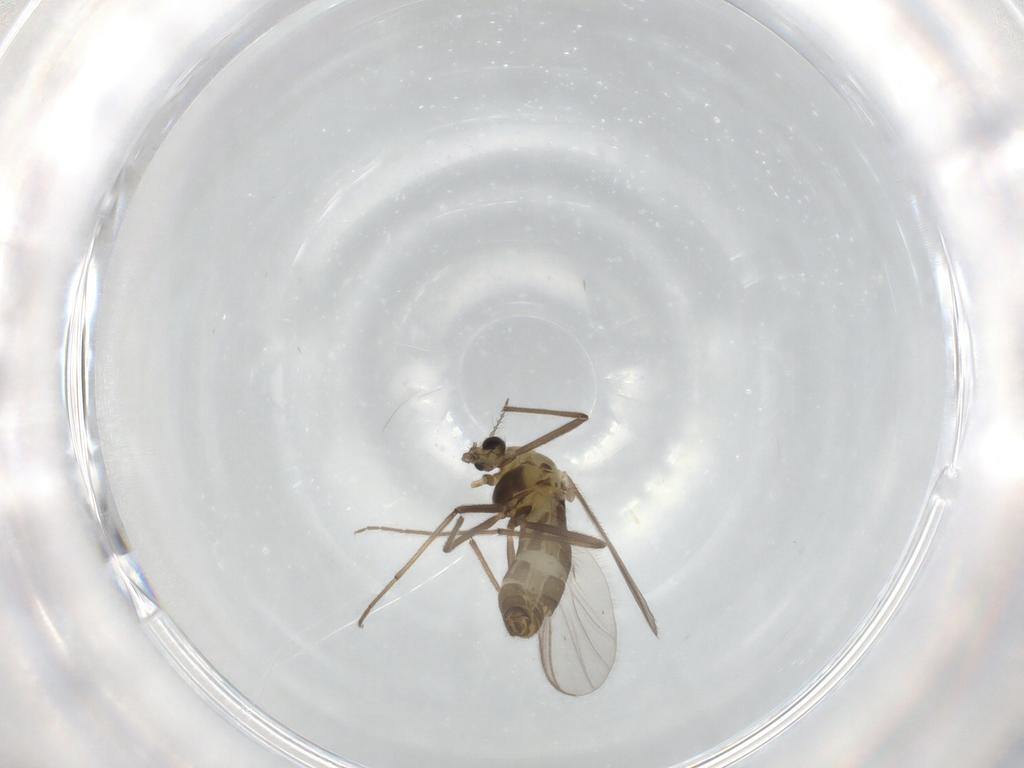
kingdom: Animalia
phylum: Arthropoda
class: Insecta
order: Diptera
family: Chironomidae
